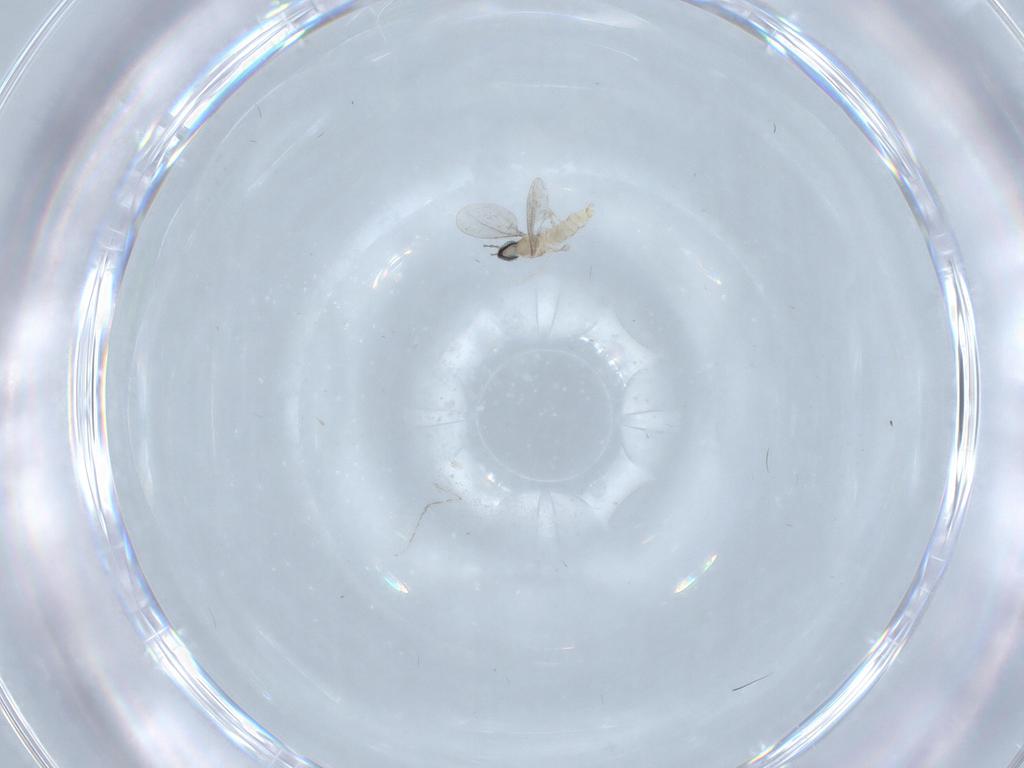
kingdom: Animalia
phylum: Arthropoda
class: Insecta
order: Diptera
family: Cecidomyiidae
